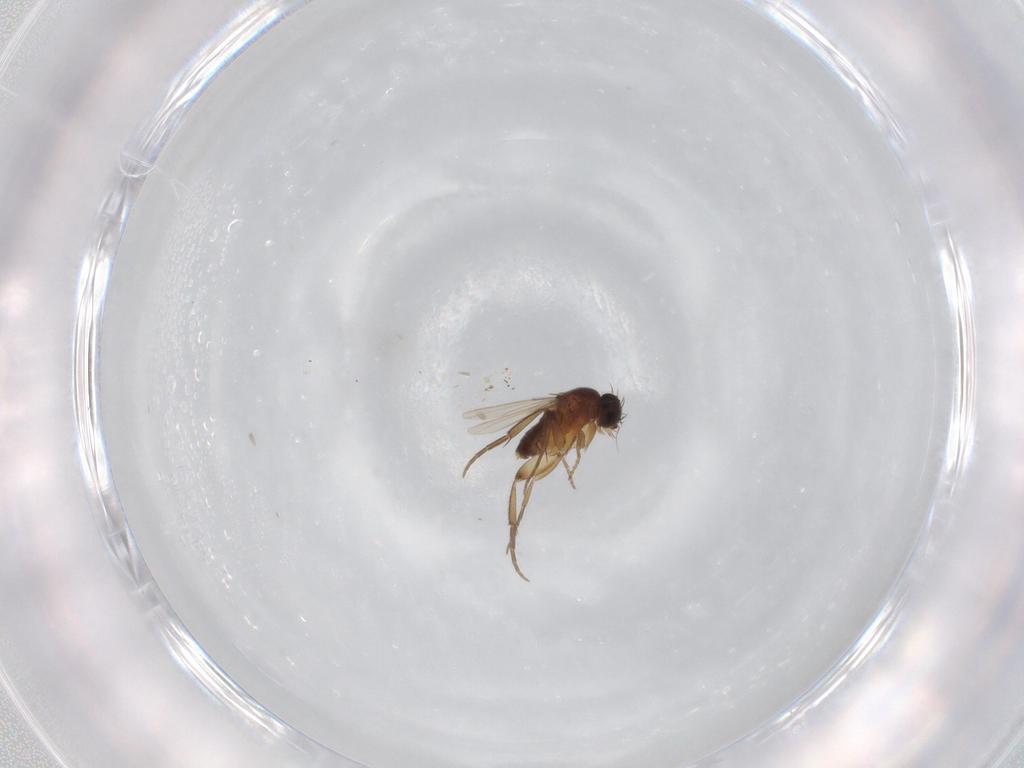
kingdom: Animalia
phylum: Arthropoda
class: Insecta
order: Diptera
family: Phoridae
